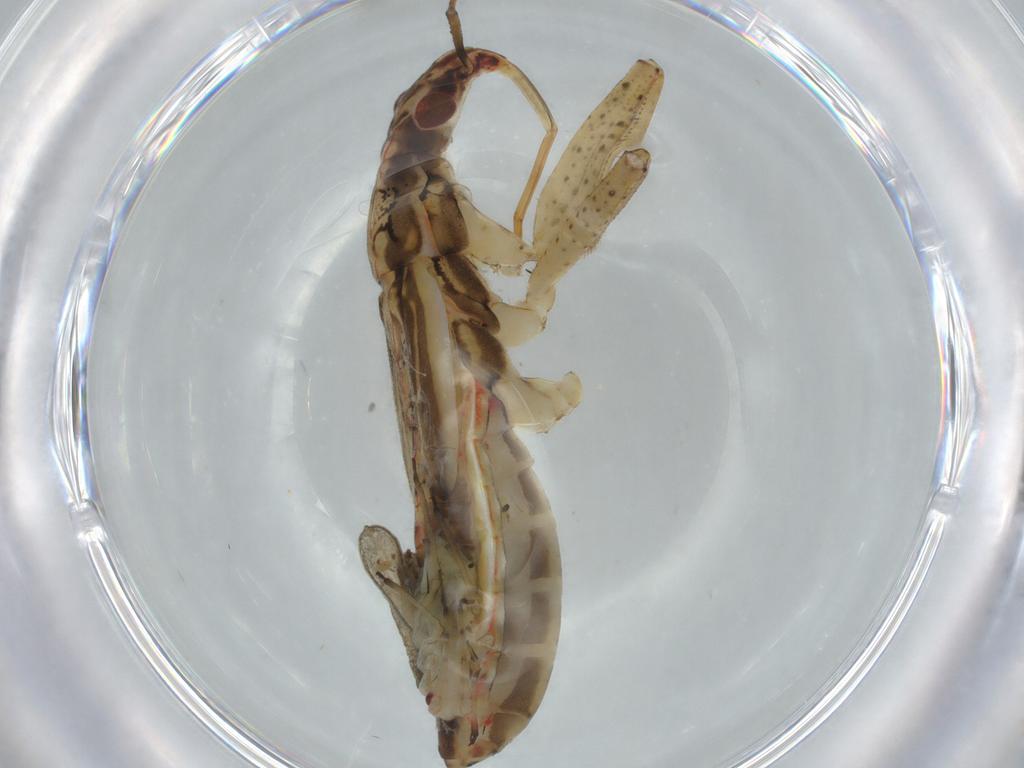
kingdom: Animalia
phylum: Arthropoda
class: Insecta
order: Hemiptera
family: Nabidae
